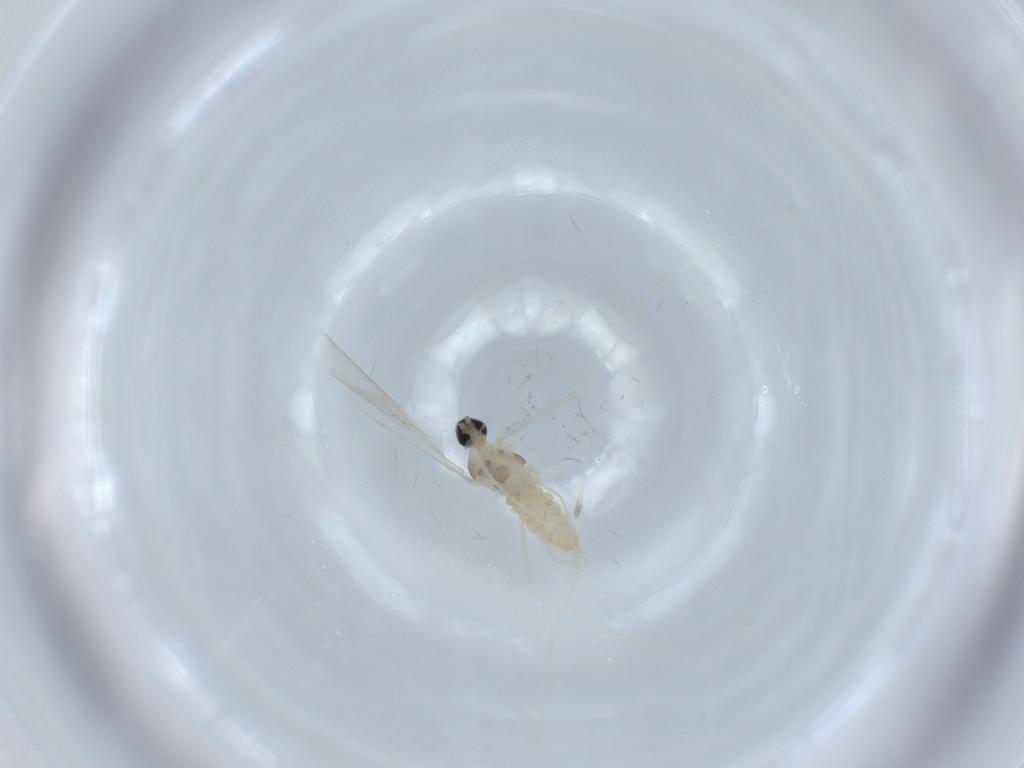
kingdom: Animalia
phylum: Arthropoda
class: Insecta
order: Diptera
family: Cecidomyiidae
